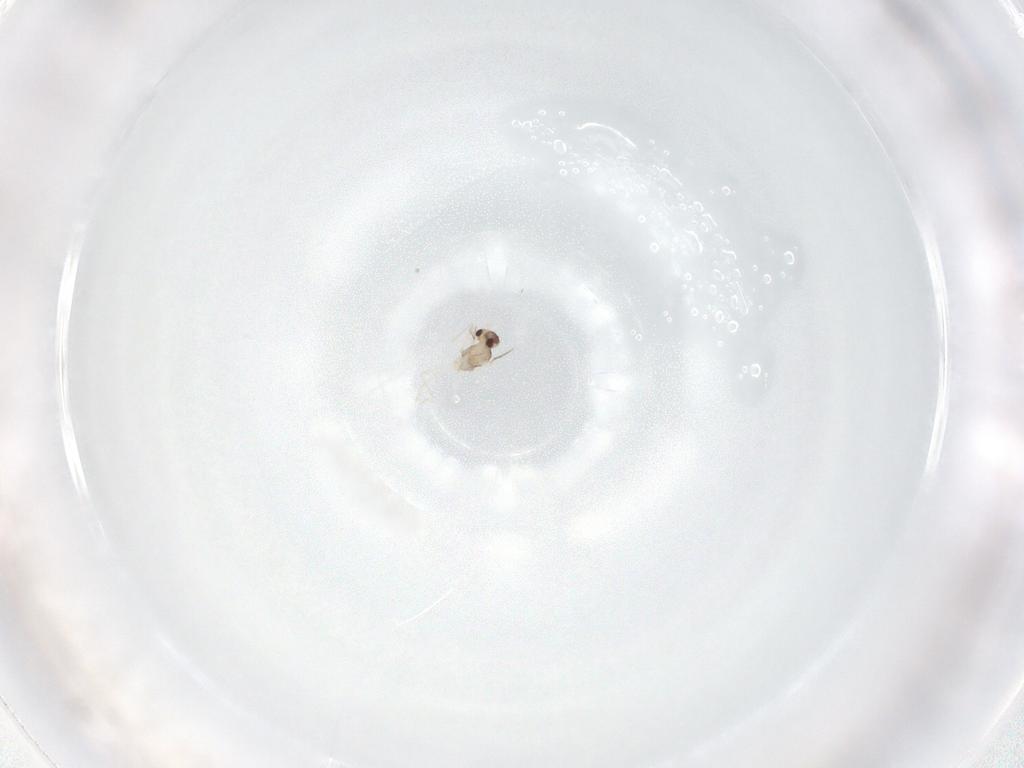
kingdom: Animalia
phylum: Arthropoda
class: Insecta
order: Diptera
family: Cecidomyiidae
